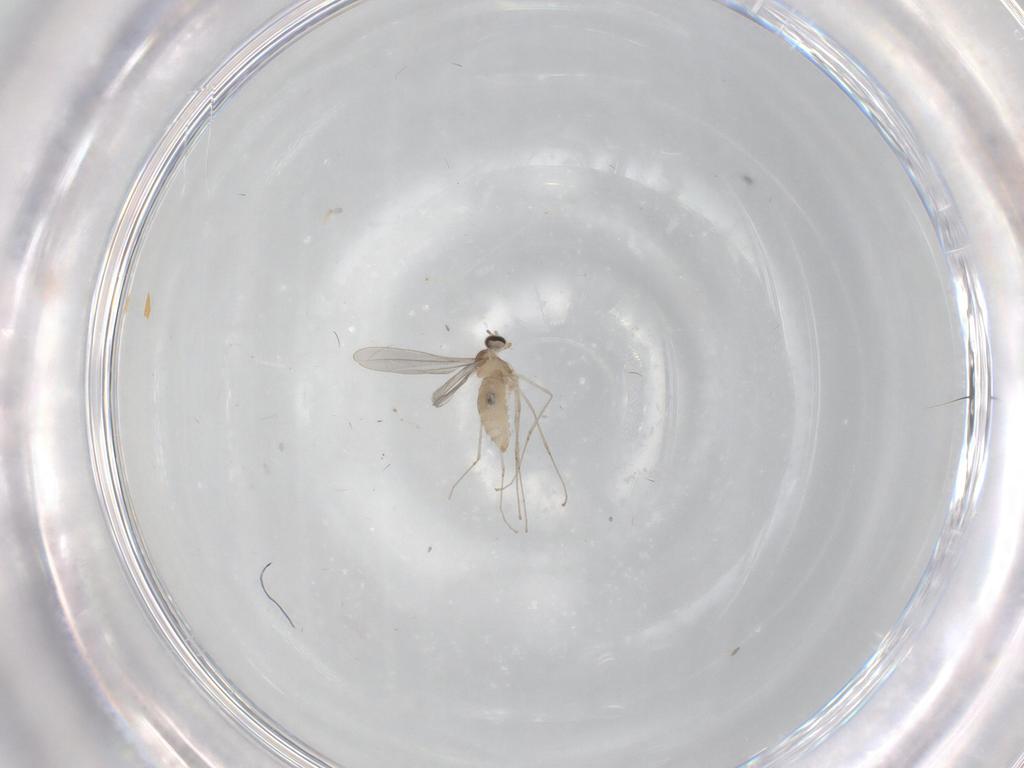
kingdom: Animalia
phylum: Arthropoda
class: Insecta
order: Diptera
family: Cecidomyiidae
